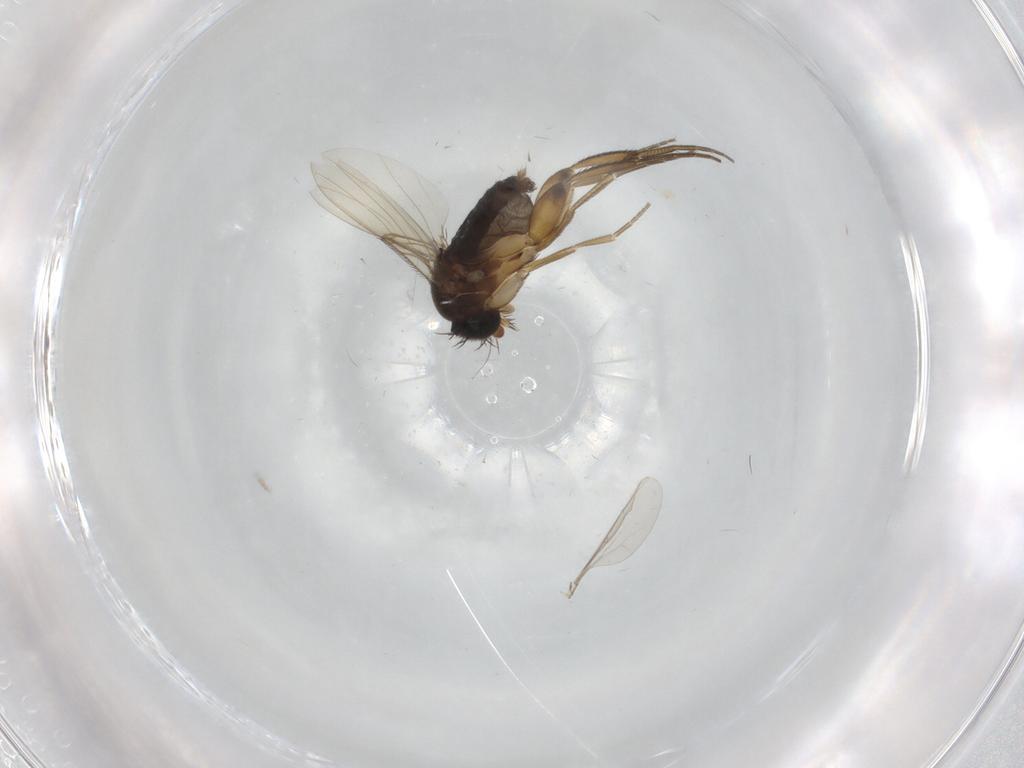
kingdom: Animalia
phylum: Arthropoda
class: Insecta
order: Diptera
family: Phoridae
